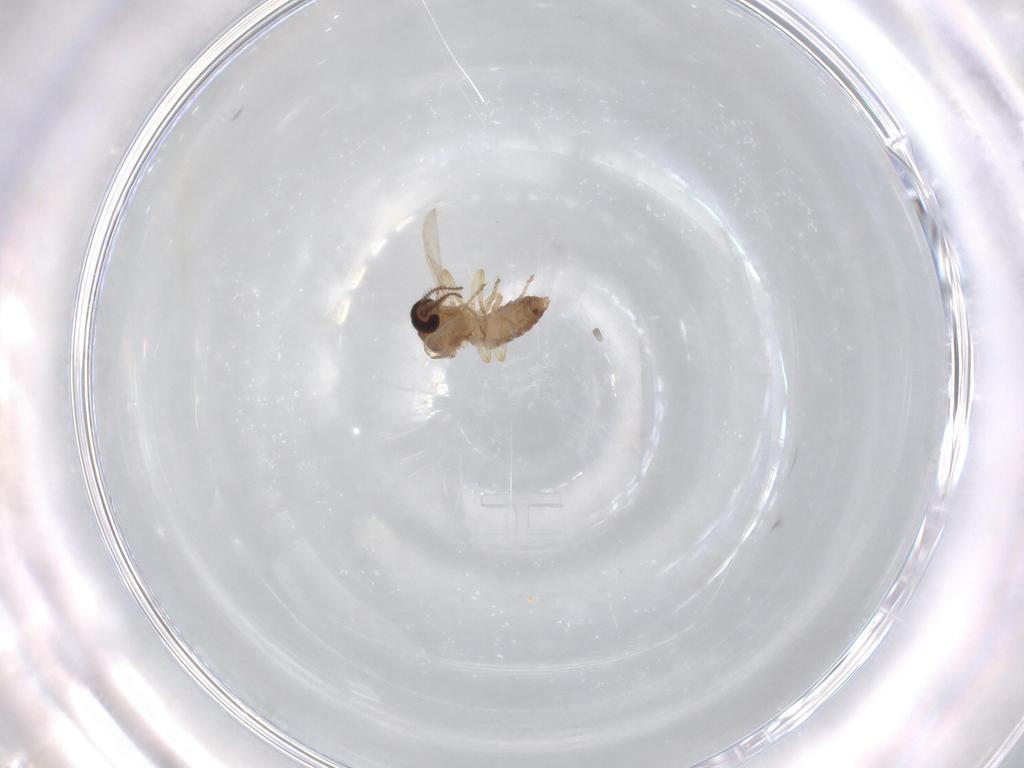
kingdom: Animalia
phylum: Arthropoda
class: Insecta
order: Diptera
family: Ceratopogonidae
